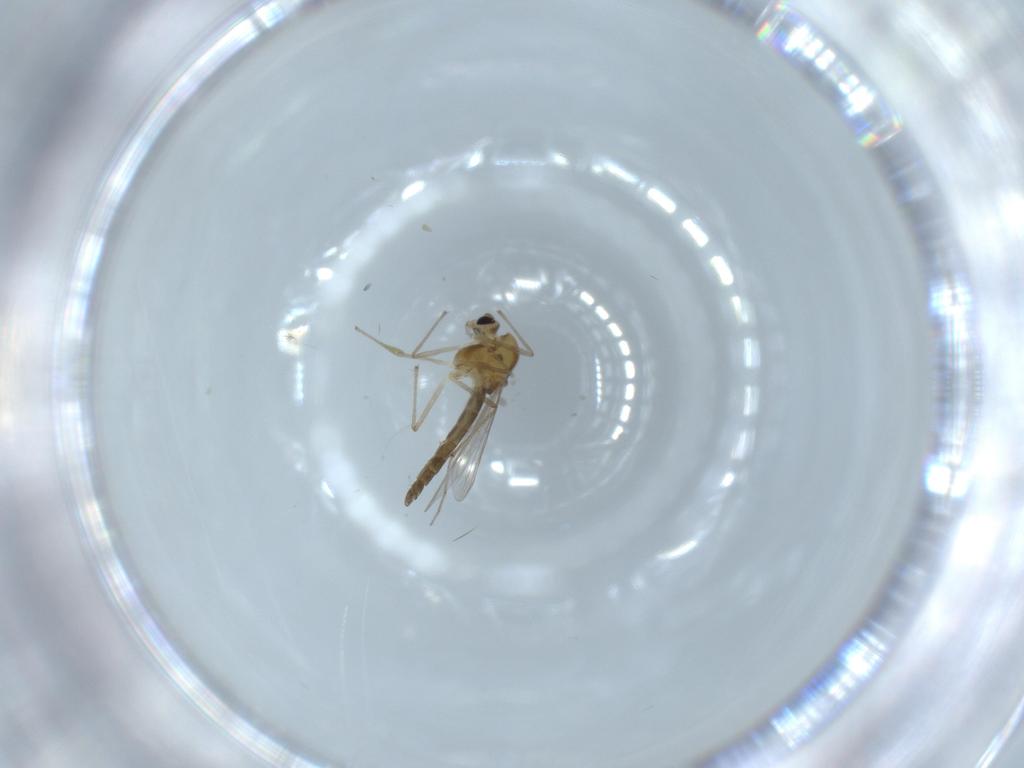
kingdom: Animalia
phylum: Arthropoda
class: Insecta
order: Diptera
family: Chironomidae
